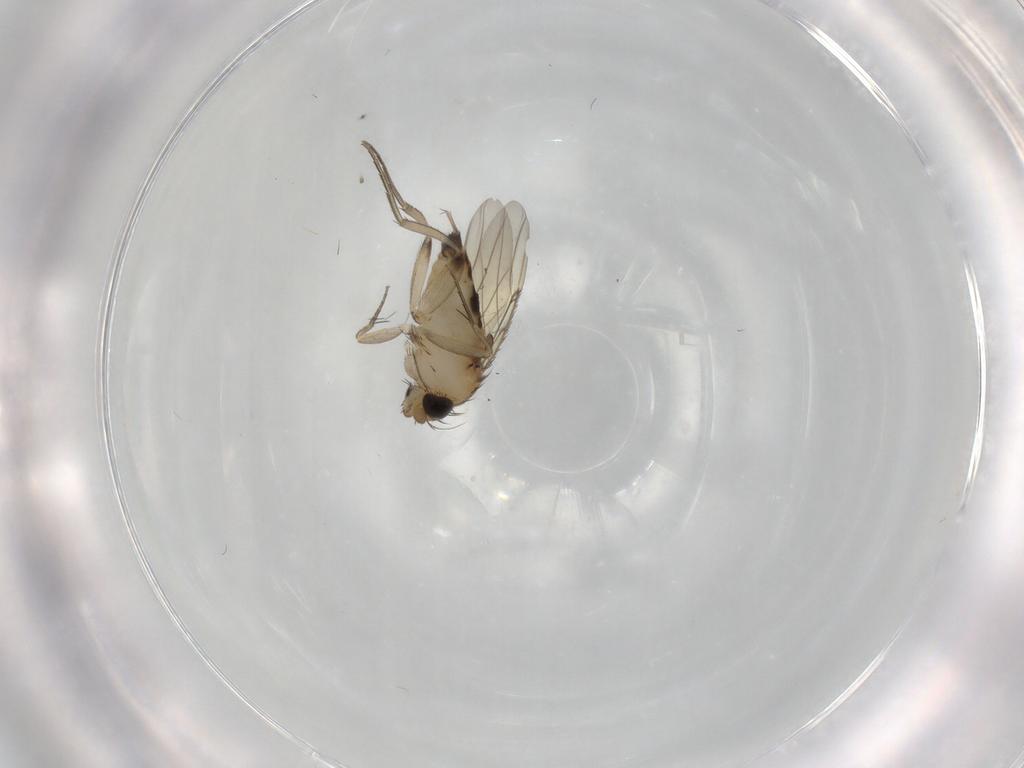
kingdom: Animalia
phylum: Arthropoda
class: Insecta
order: Diptera
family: Phoridae
